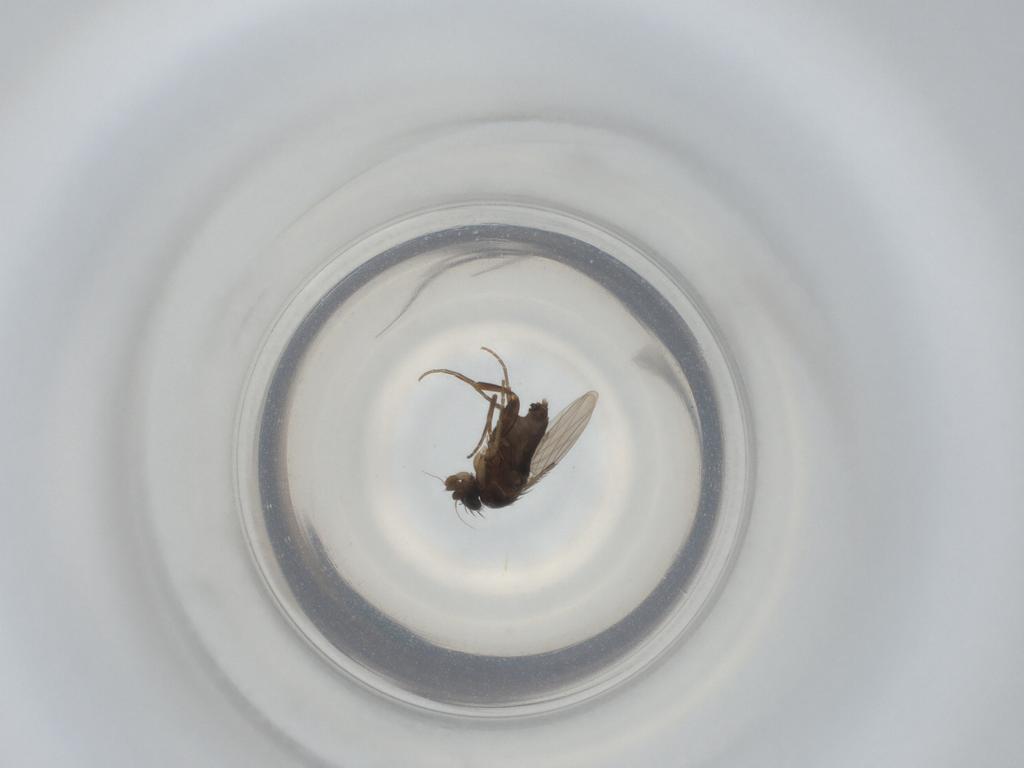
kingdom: Animalia
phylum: Arthropoda
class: Insecta
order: Diptera
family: Phoridae
